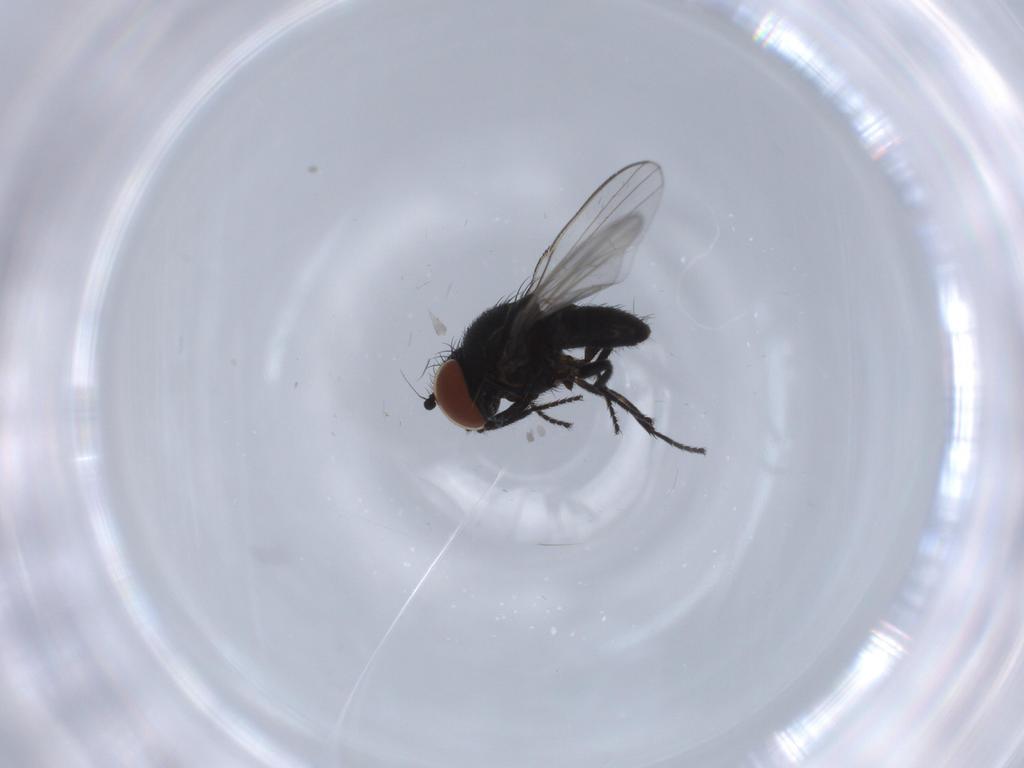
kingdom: Animalia
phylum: Arthropoda
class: Insecta
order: Diptera
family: Milichiidae
